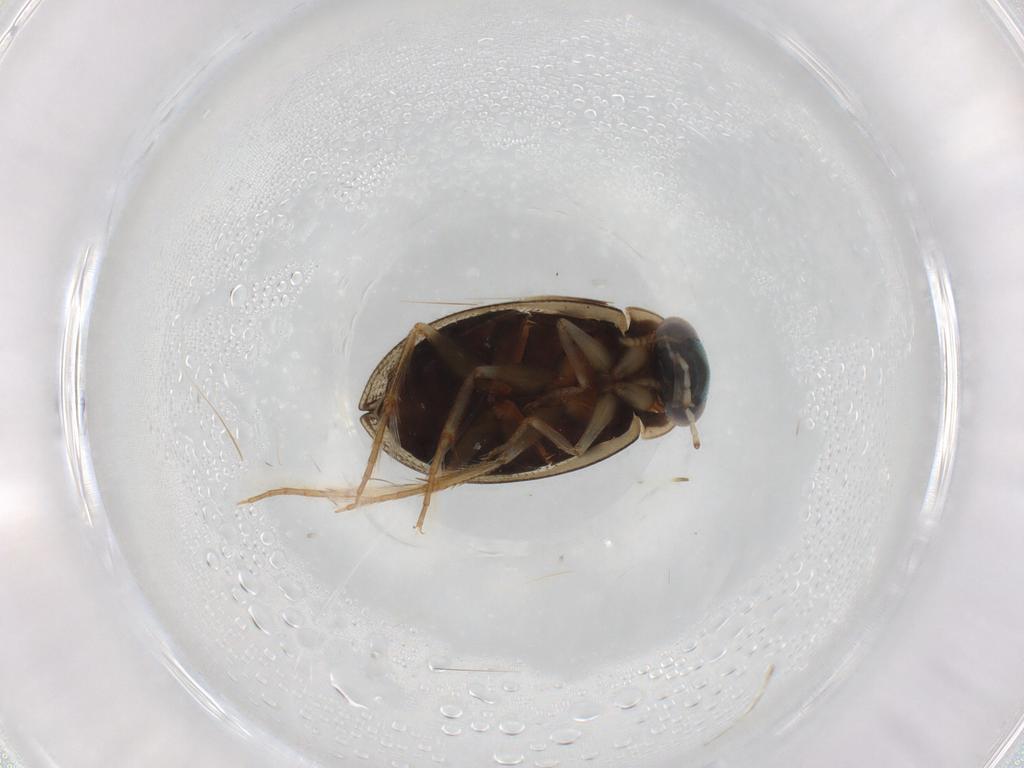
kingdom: Animalia
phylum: Arthropoda
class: Insecta
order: Coleoptera
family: Hydrophilidae
